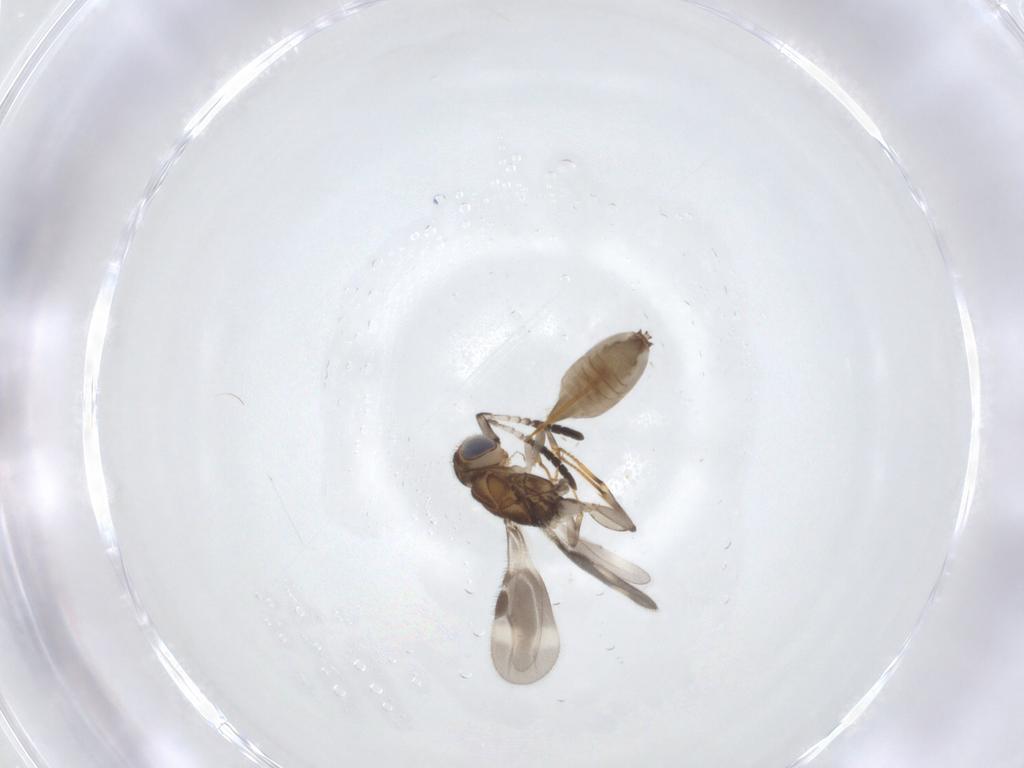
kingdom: Animalia
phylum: Arthropoda
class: Insecta
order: Hymenoptera
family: Megaspilidae
